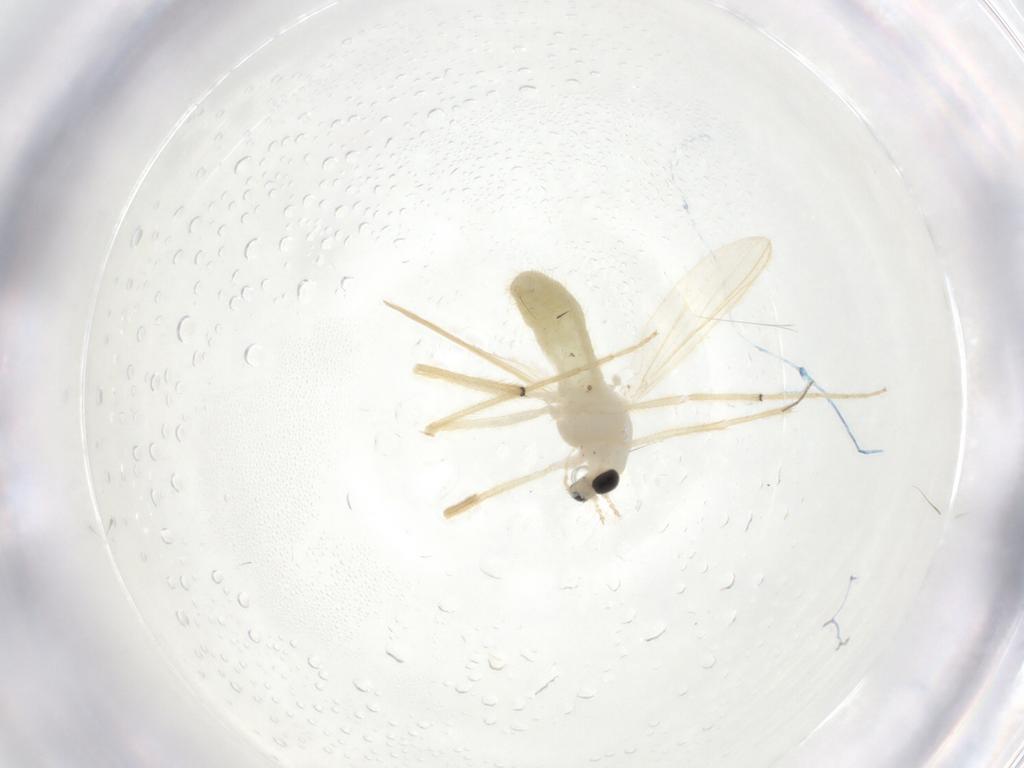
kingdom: Animalia
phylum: Arthropoda
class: Insecta
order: Diptera
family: Chironomidae
